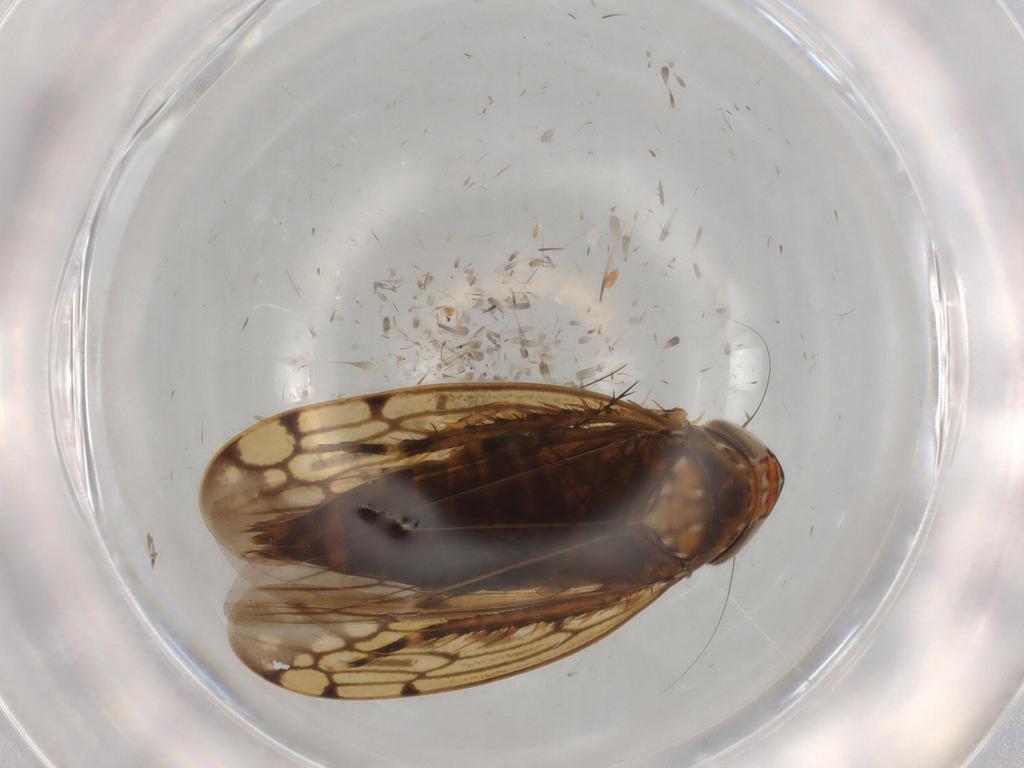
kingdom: Animalia
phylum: Arthropoda
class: Insecta
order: Hemiptera
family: Cicadellidae
